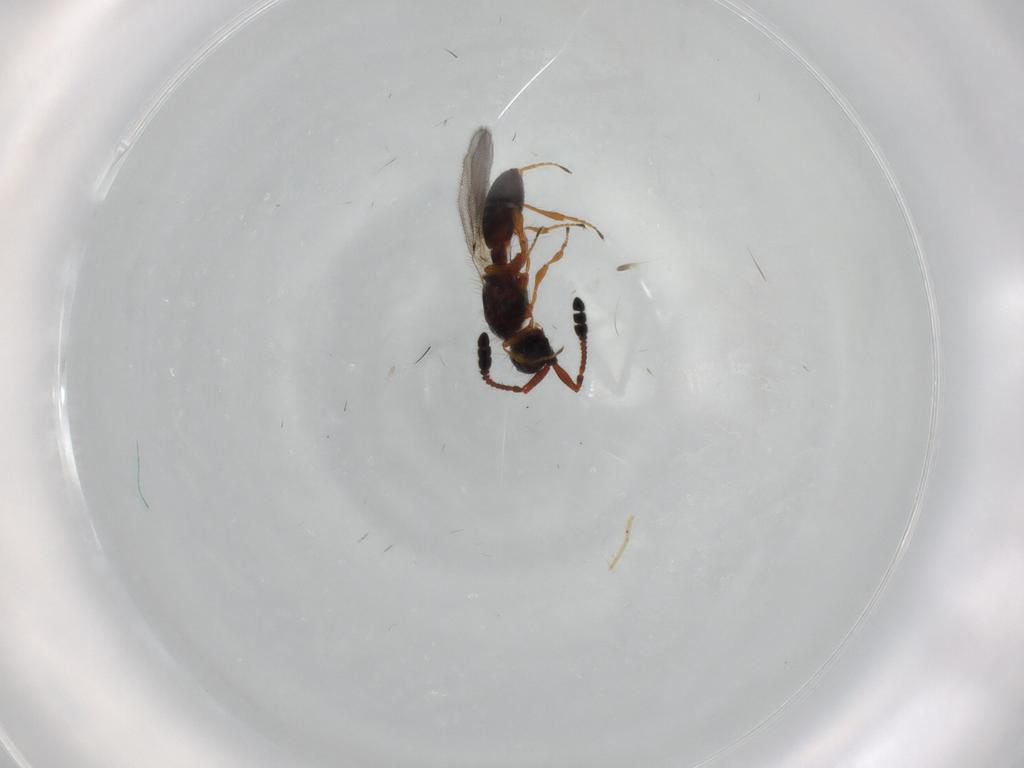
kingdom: Animalia
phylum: Arthropoda
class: Insecta
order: Hymenoptera
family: Diapriidae
